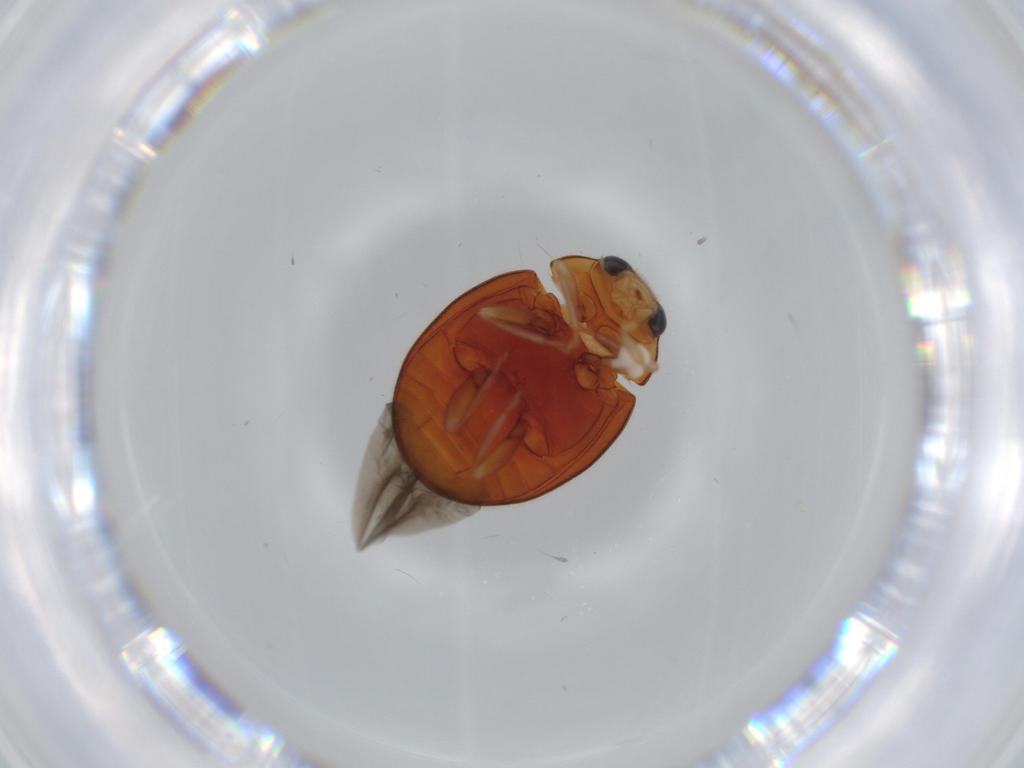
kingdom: Animalia
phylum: Arthropoda
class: Insecta
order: Coleoptera
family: Coccinellidae
